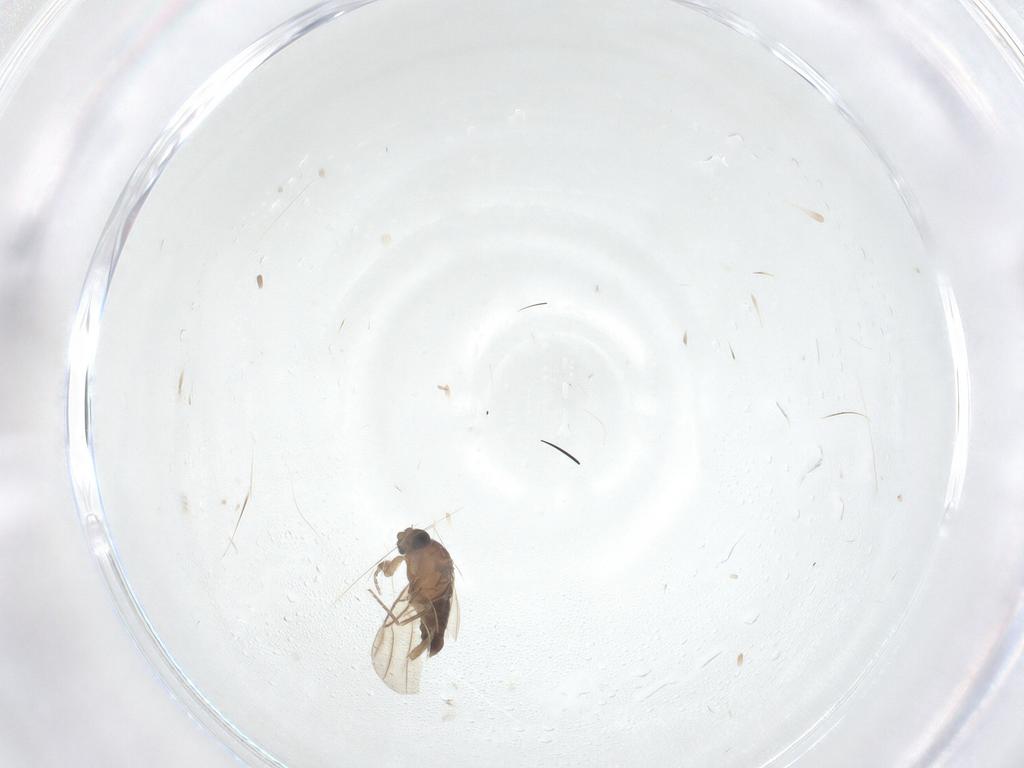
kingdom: Animalia
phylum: Arthropoda
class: Insecta
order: Diptera
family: Phoridae
